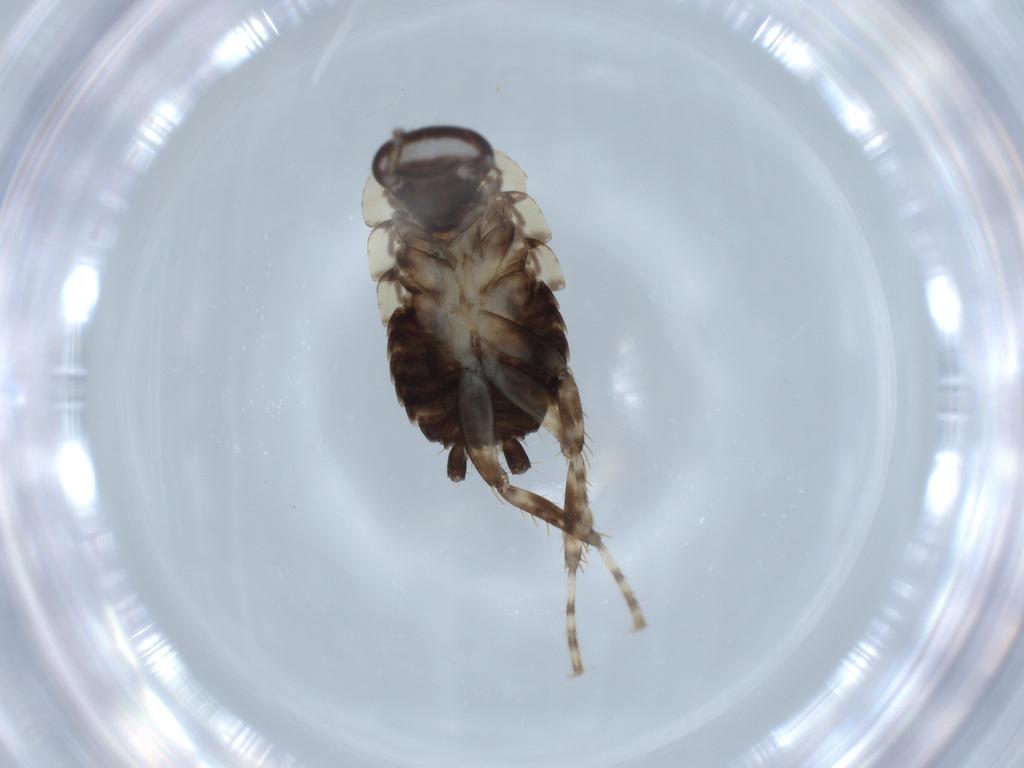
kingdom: Animalia
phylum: Arthropoda
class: Insecta
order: Blattodea
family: Ectobiidae
